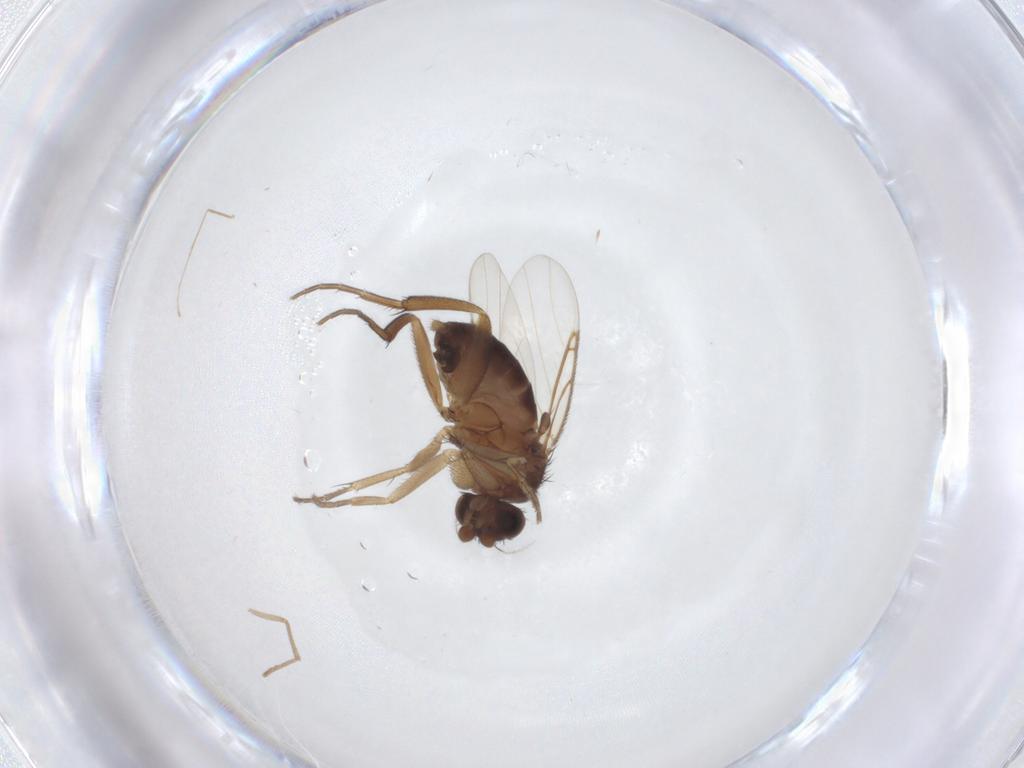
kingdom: Animalia
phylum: Arthropoda
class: Insecta
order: Diptera
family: Phoridae
